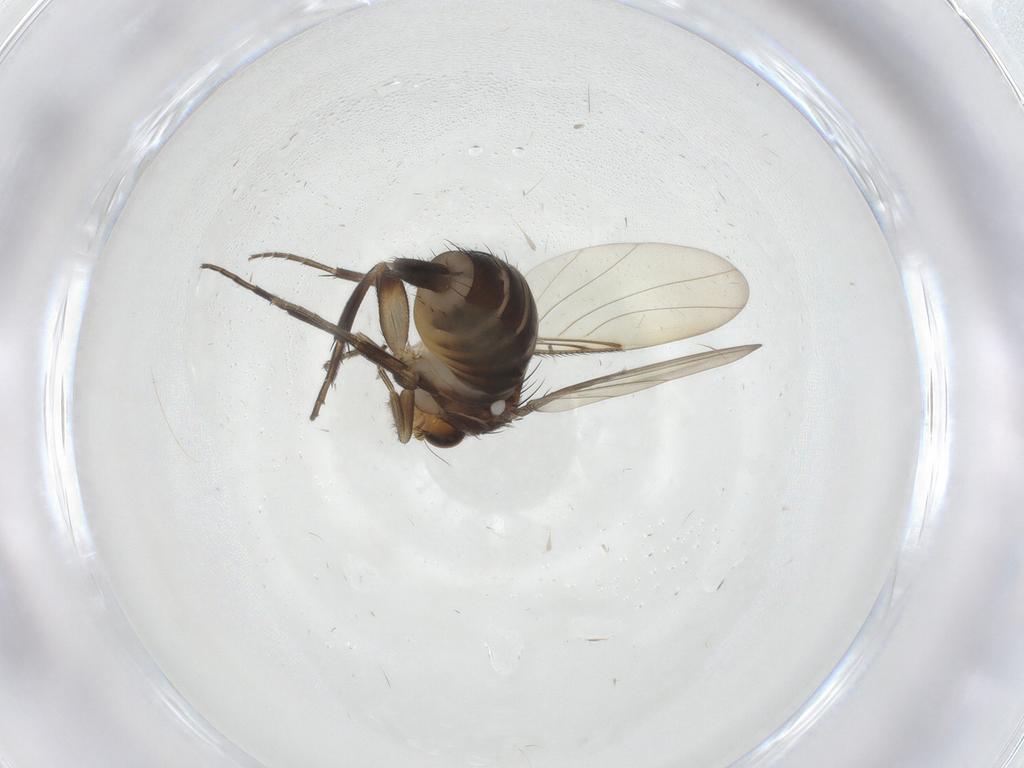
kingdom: Animalia
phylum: Arthropoda
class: Insecta
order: Diptera
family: Phoridae
